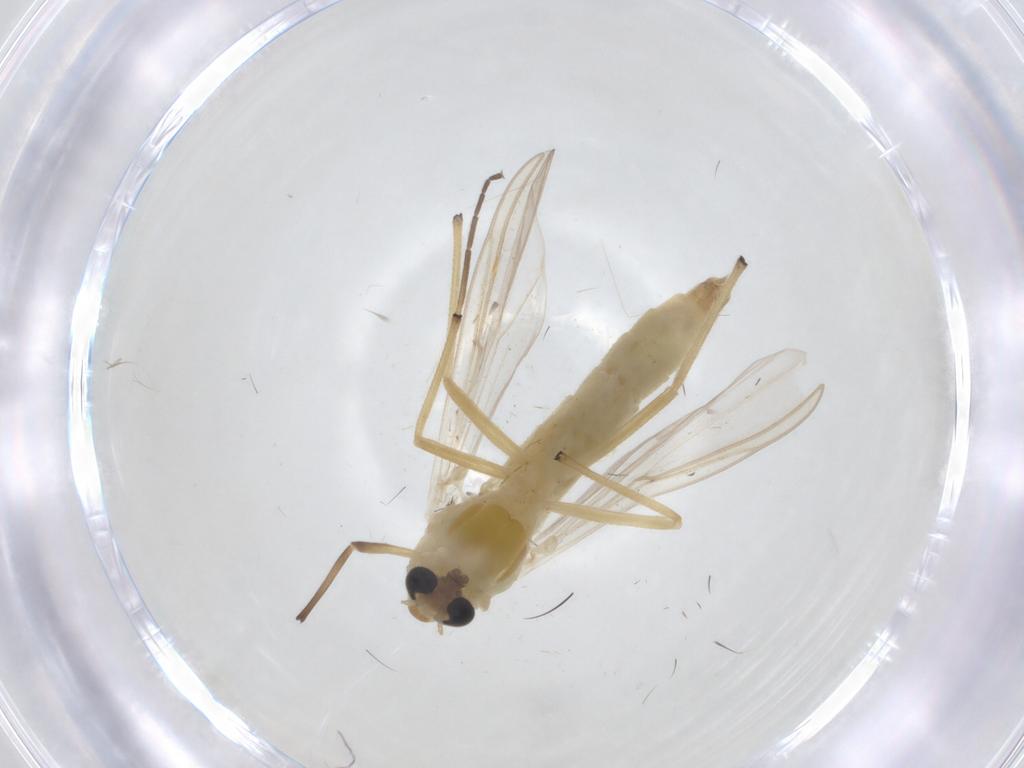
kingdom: Animalia
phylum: Arthropoda
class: Insecta
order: Diptera
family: Chironomidae
